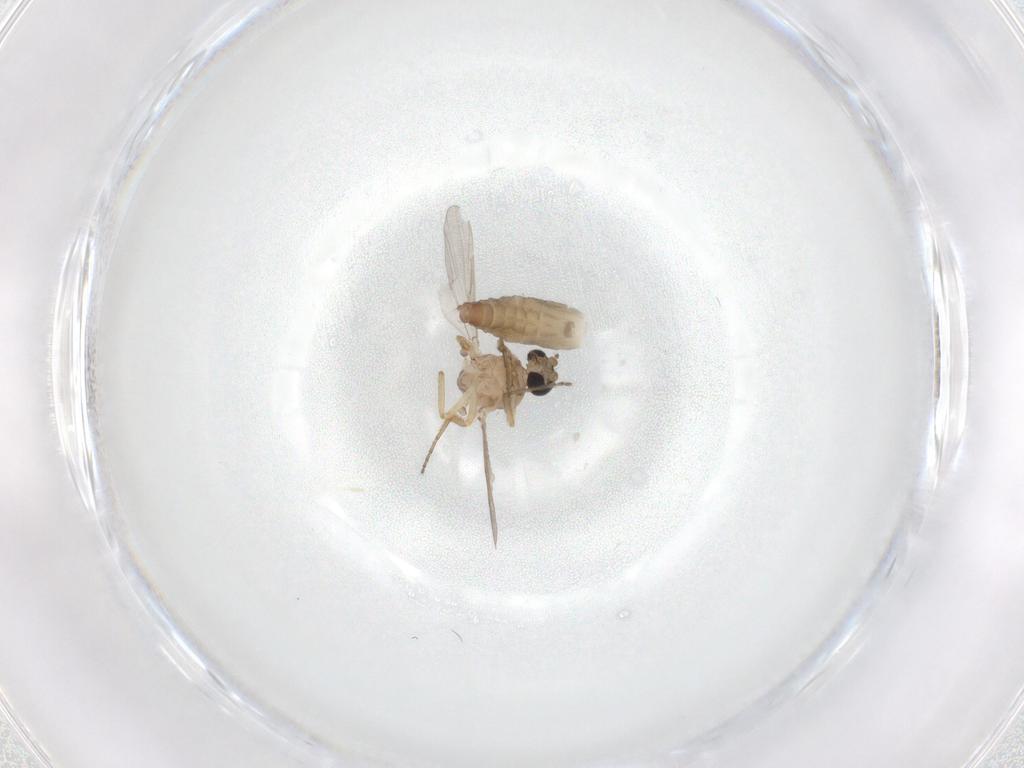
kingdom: Animalia
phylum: Arthropoda
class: Insecta
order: Diptera
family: Ceratopogonidae
